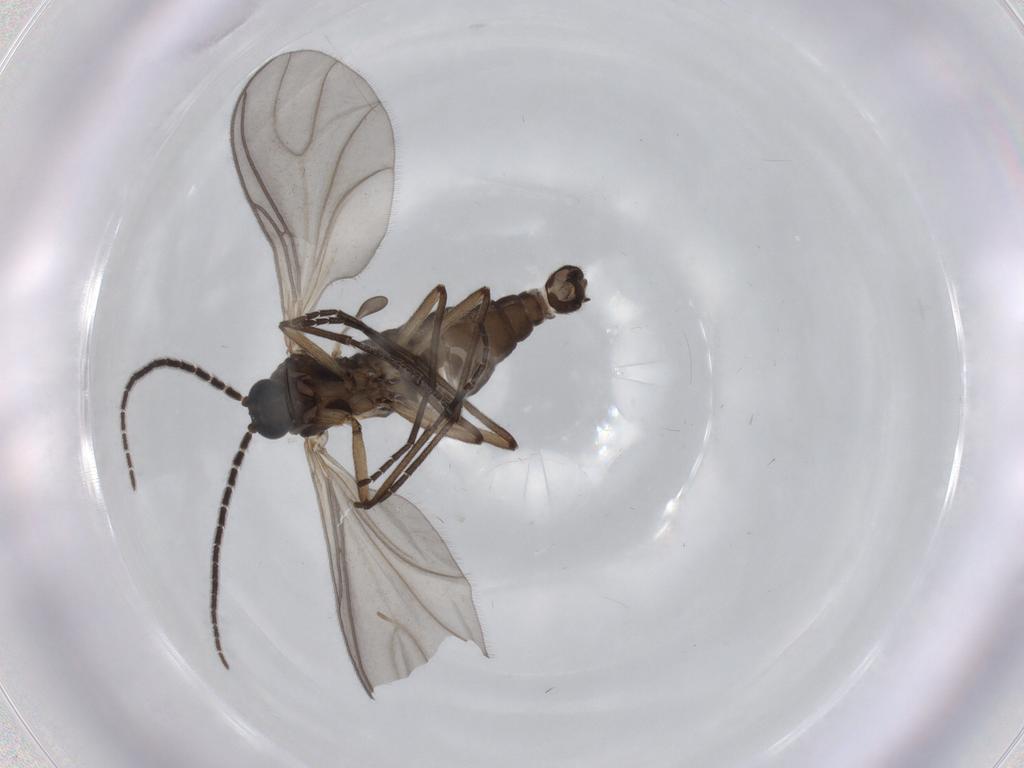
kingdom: Animalia
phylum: Arthropoda
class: Insecta
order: Diptera
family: Sciaridae
